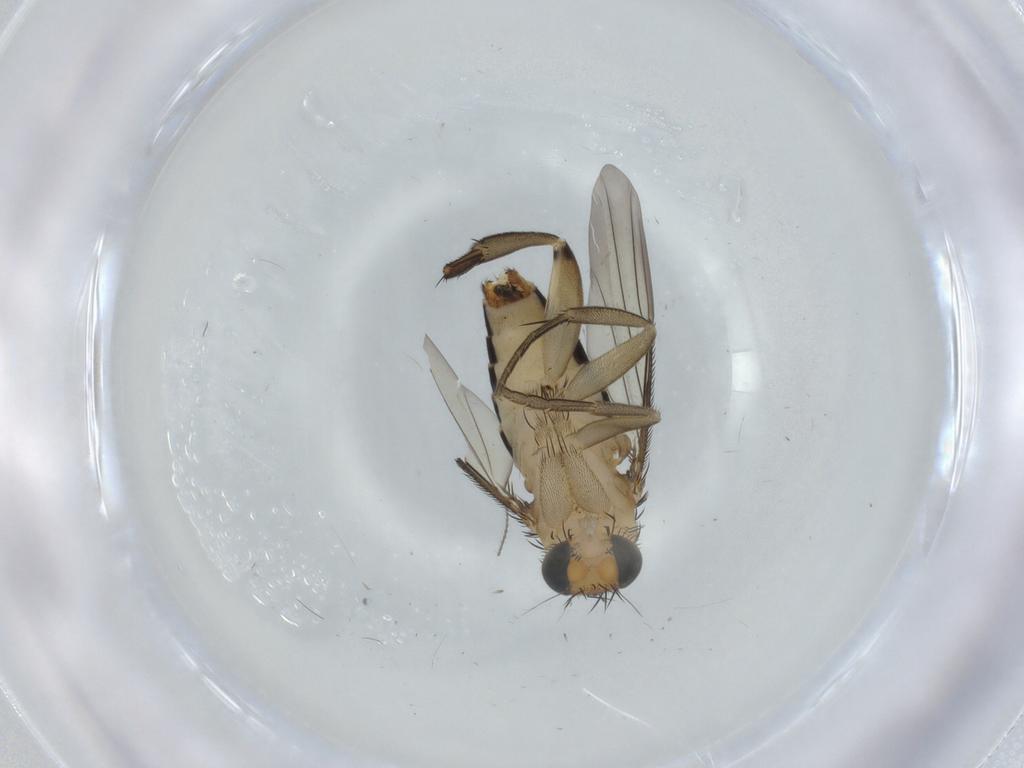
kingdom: Animalia
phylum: Arthropoda
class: Insecta
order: Diptera
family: Phoridae
